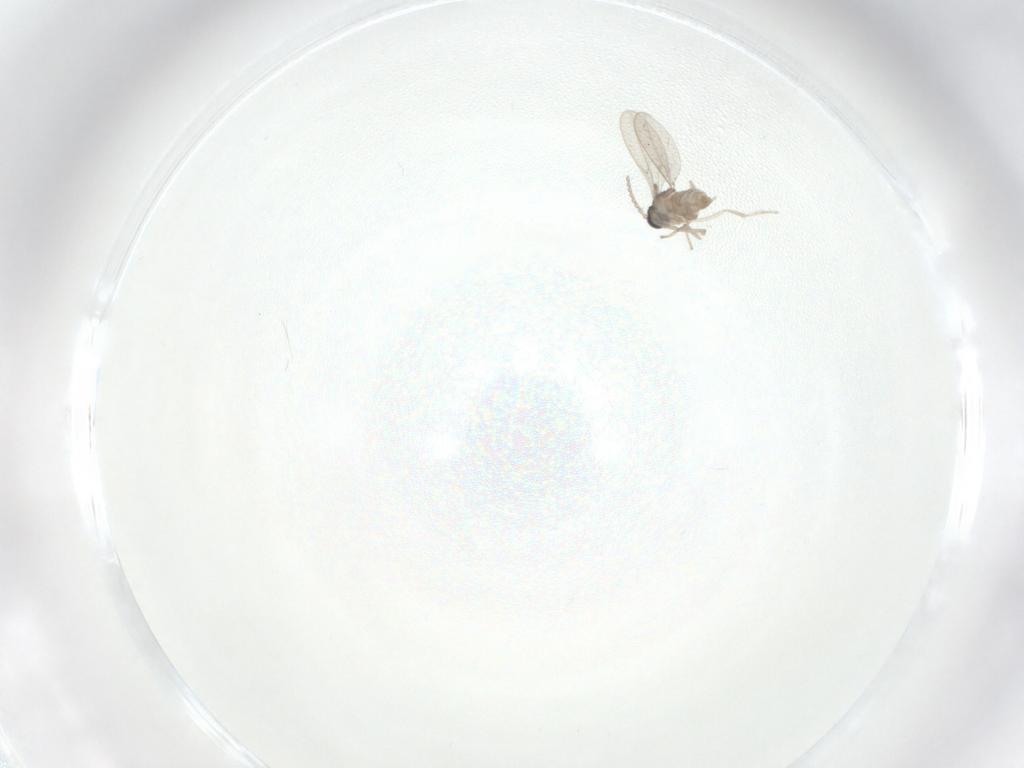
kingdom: Animalia
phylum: Arthropoda
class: Insecta
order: Diptera
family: Cecidomyiidae
